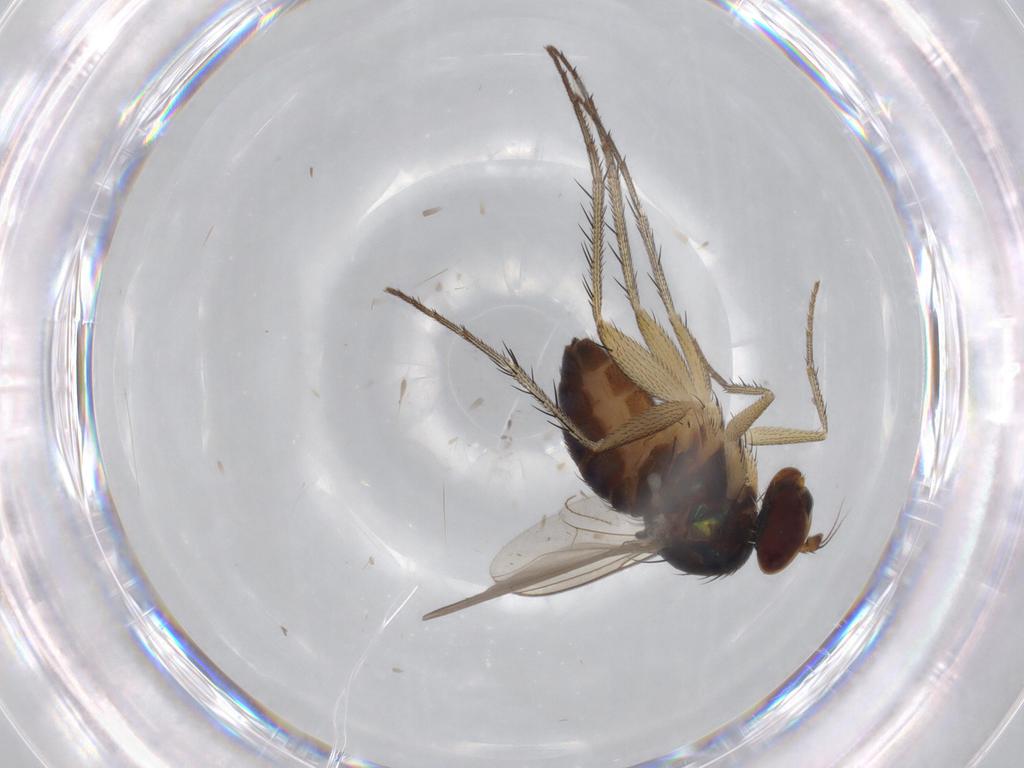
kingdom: Animalia
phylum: Arthropoda
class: Insecta
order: Diptera
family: Dolichopodidae
